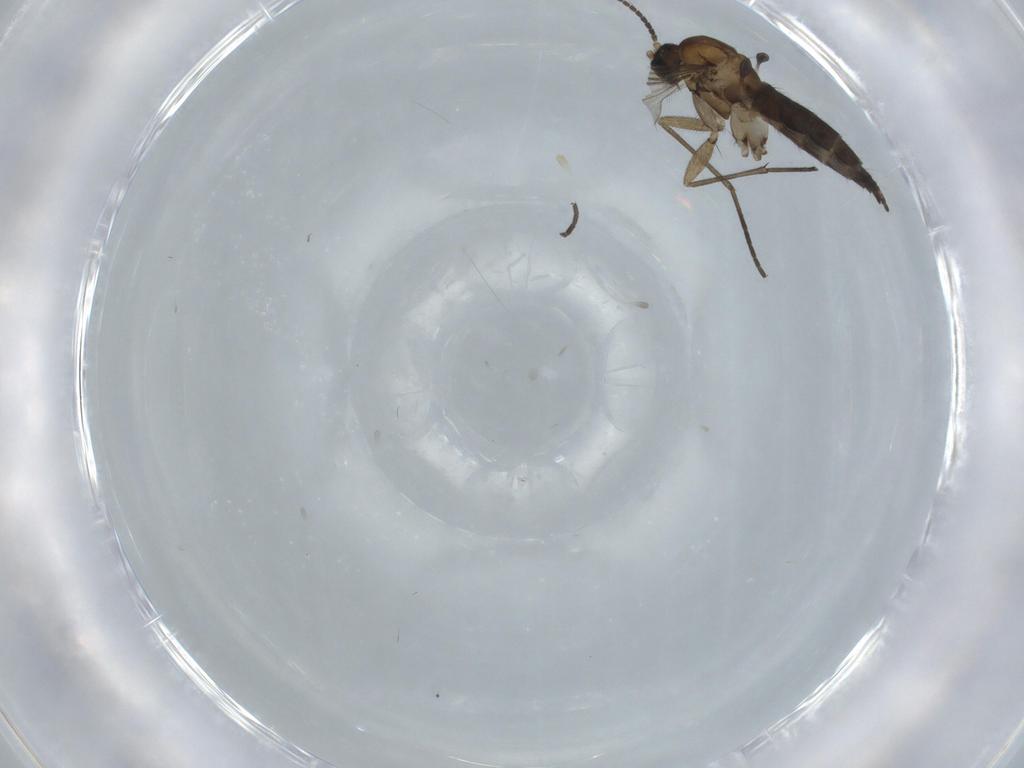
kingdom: Animalia
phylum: Arthropoda
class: Insecta
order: Diptera
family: Sciaridae
